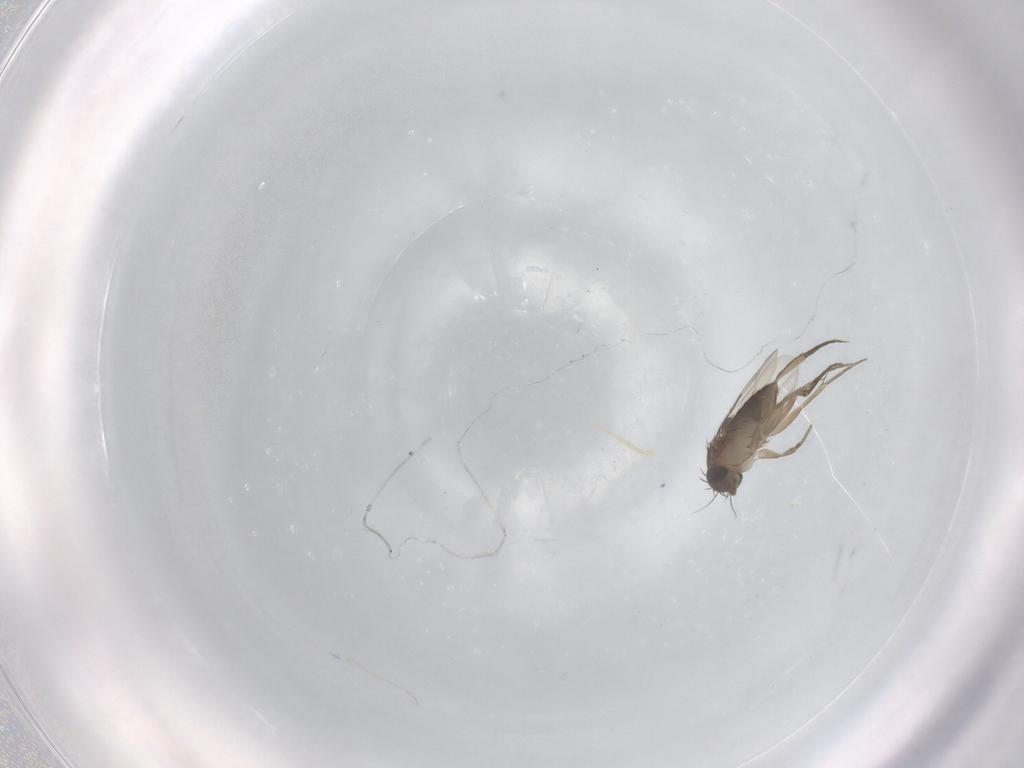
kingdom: Animalia
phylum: Arthropoda
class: Insecta
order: Diptera
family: Phoridae
